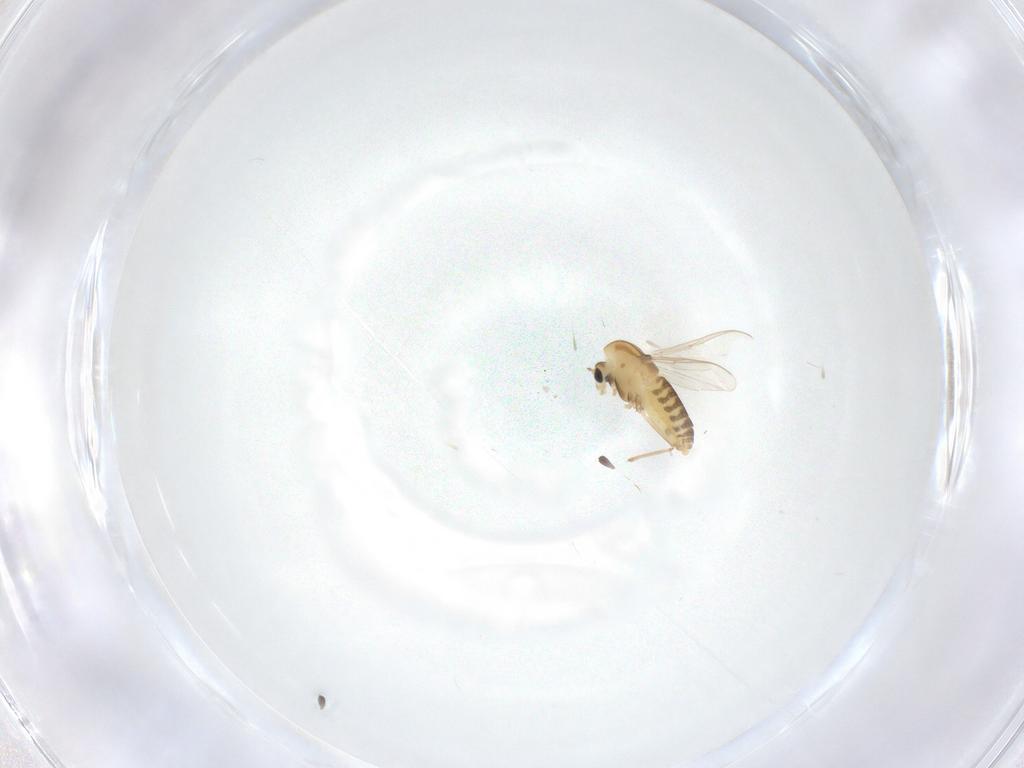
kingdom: Animalia
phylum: Arthropoda
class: Insecta
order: Diptera
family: Chironomidae
